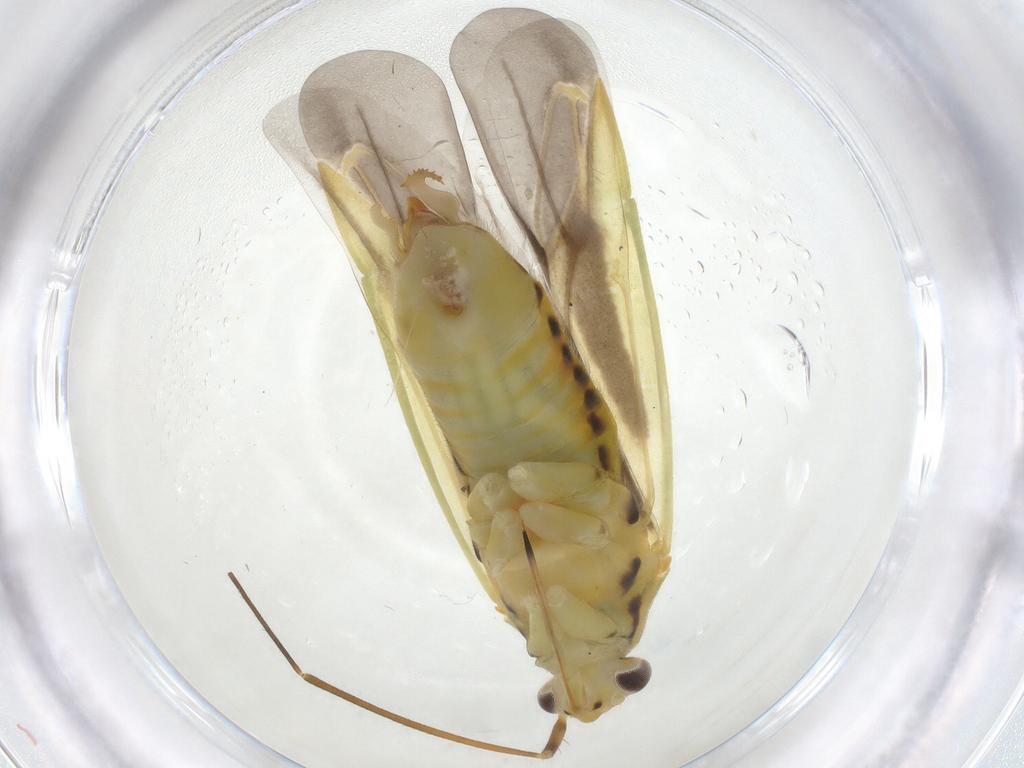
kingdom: Animalia
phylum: Arthropoda
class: Insecta
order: Hemiptera
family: Miridae
